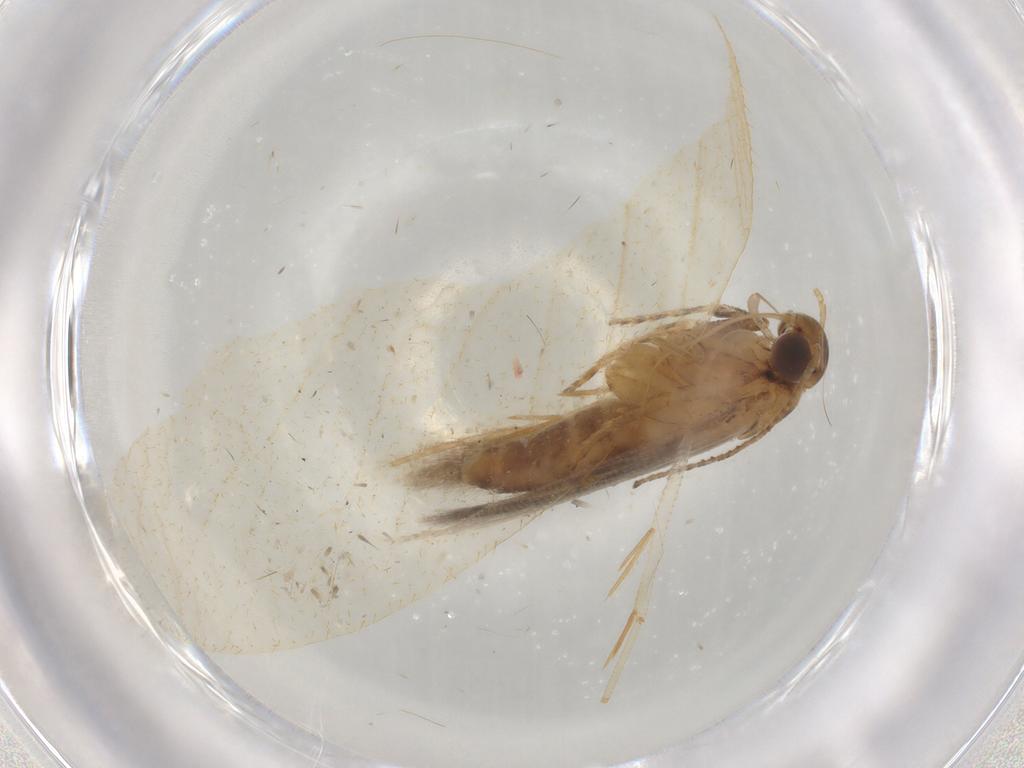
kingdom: Animalia
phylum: Arthropoda
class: Insecta
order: Lepidoptera
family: Gelechiidae
